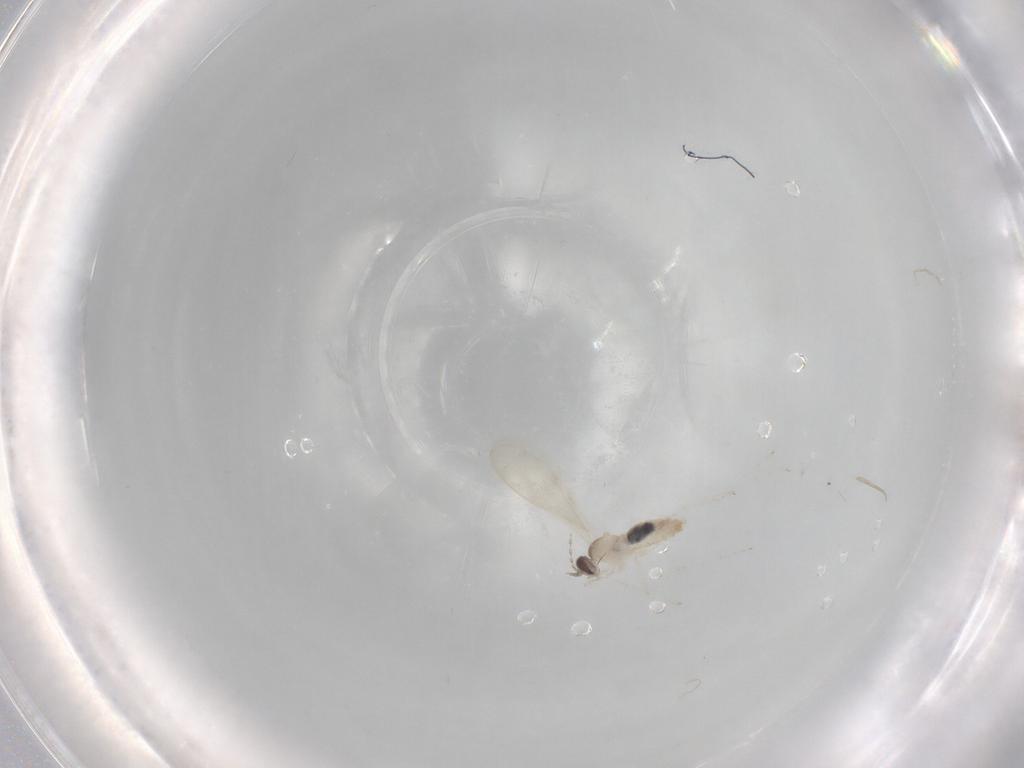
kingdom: Animalia
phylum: Arthropoda
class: Insecta
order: Diptera
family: Cecidomyiidae
